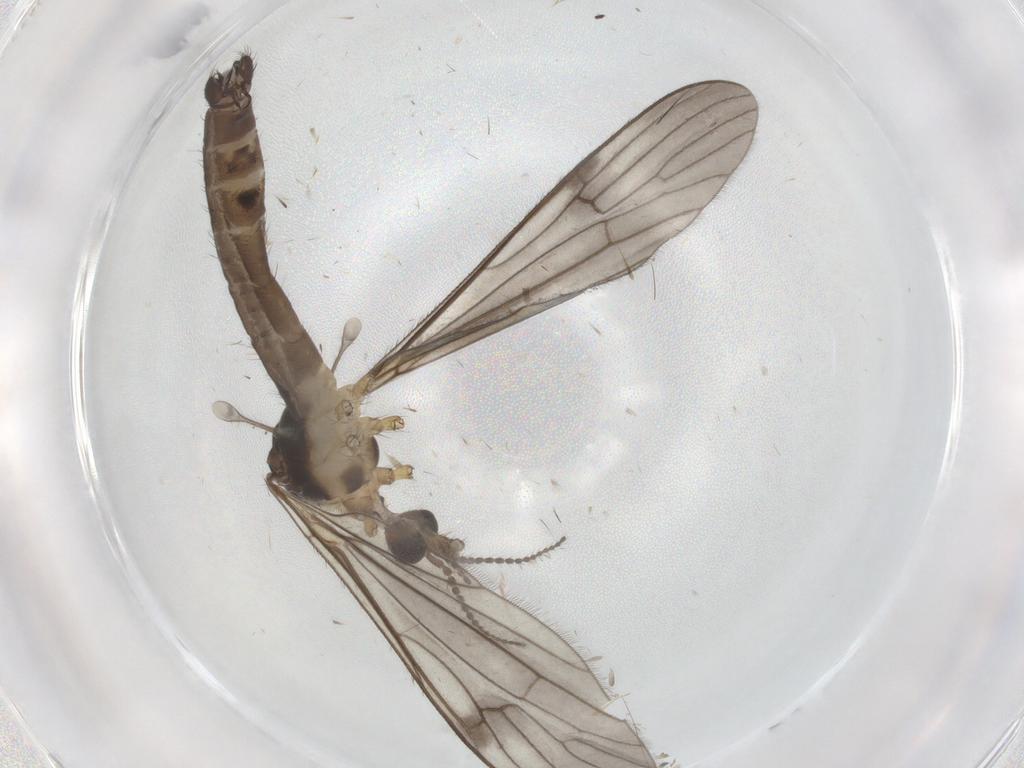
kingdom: Animalia
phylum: Arthropoda
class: Insecta
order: Diptera
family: Limoniidae
